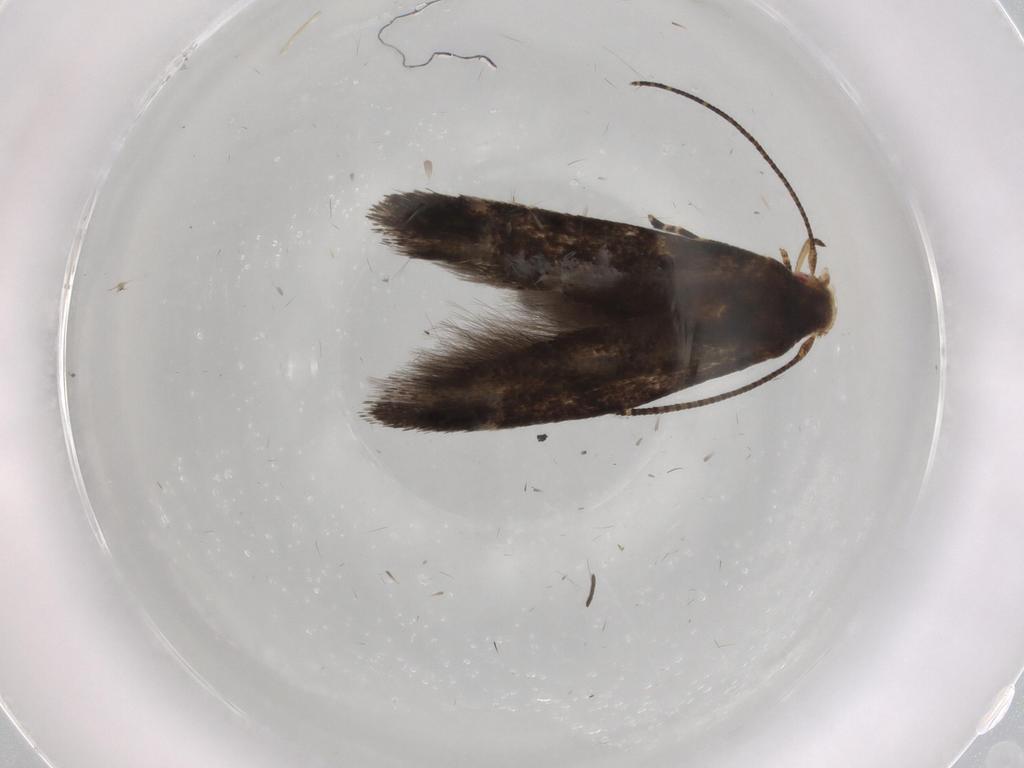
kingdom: Animalia
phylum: Arthropoda
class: Insecta
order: Lepidoptera
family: Momphidae
